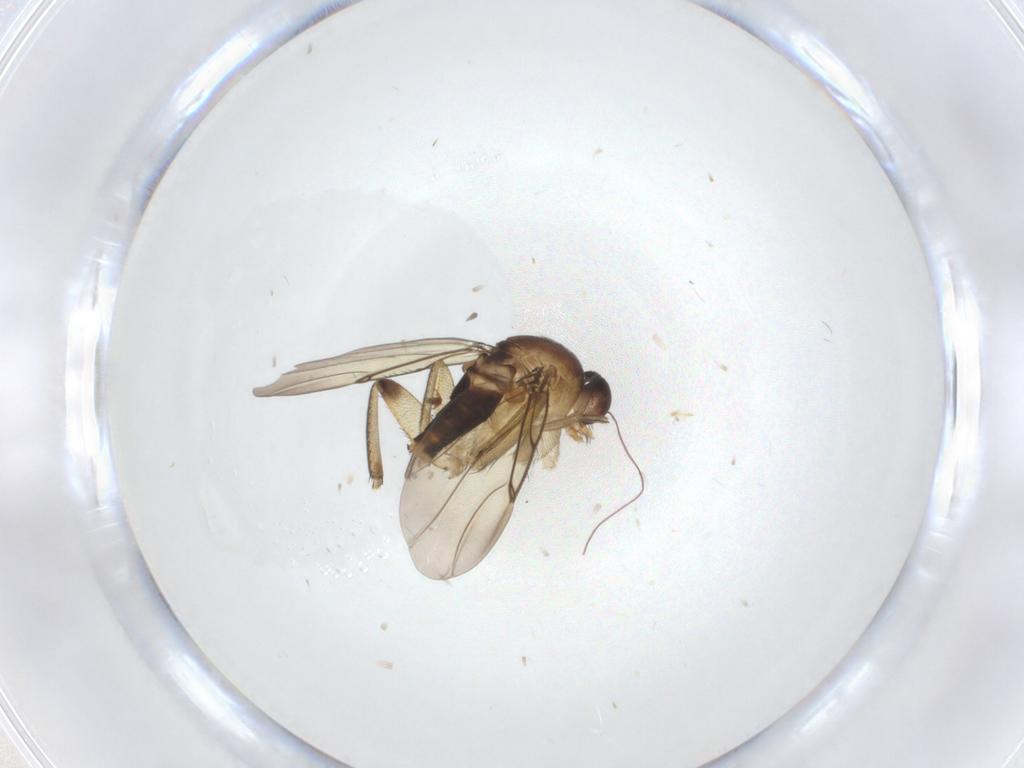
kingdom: Animalia
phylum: Arthropoda
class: Insecta
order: Diptera
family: Phoridae
